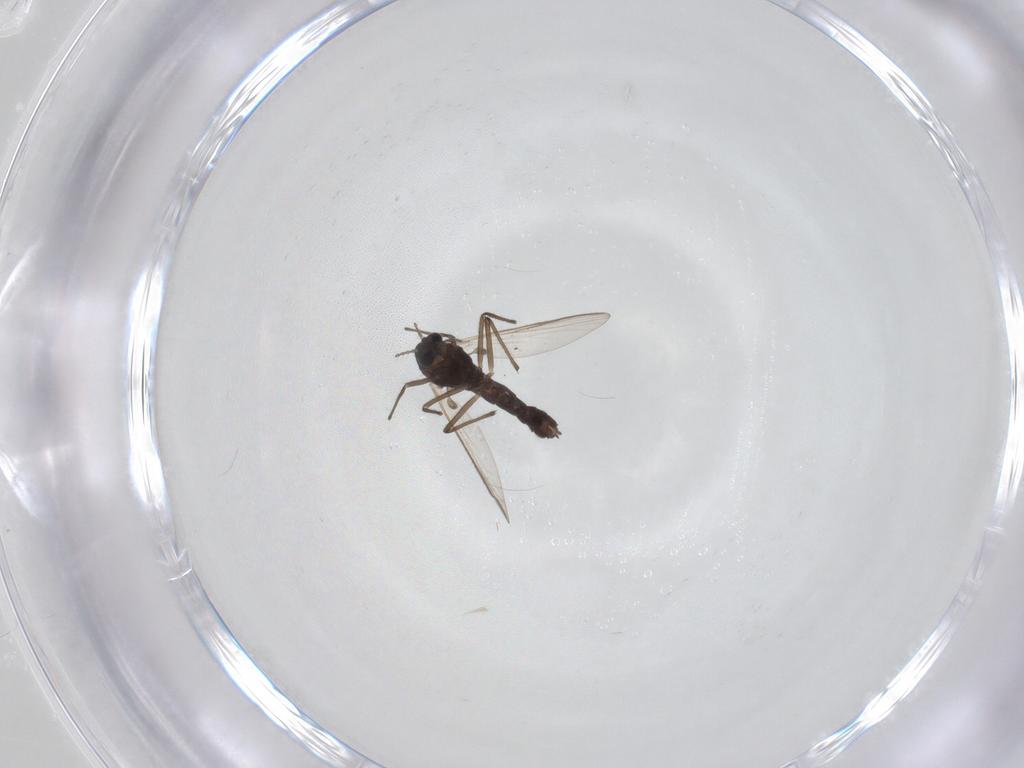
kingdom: Animalia
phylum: Arthropoda
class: Insecta
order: Diptera
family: Chironomidae
